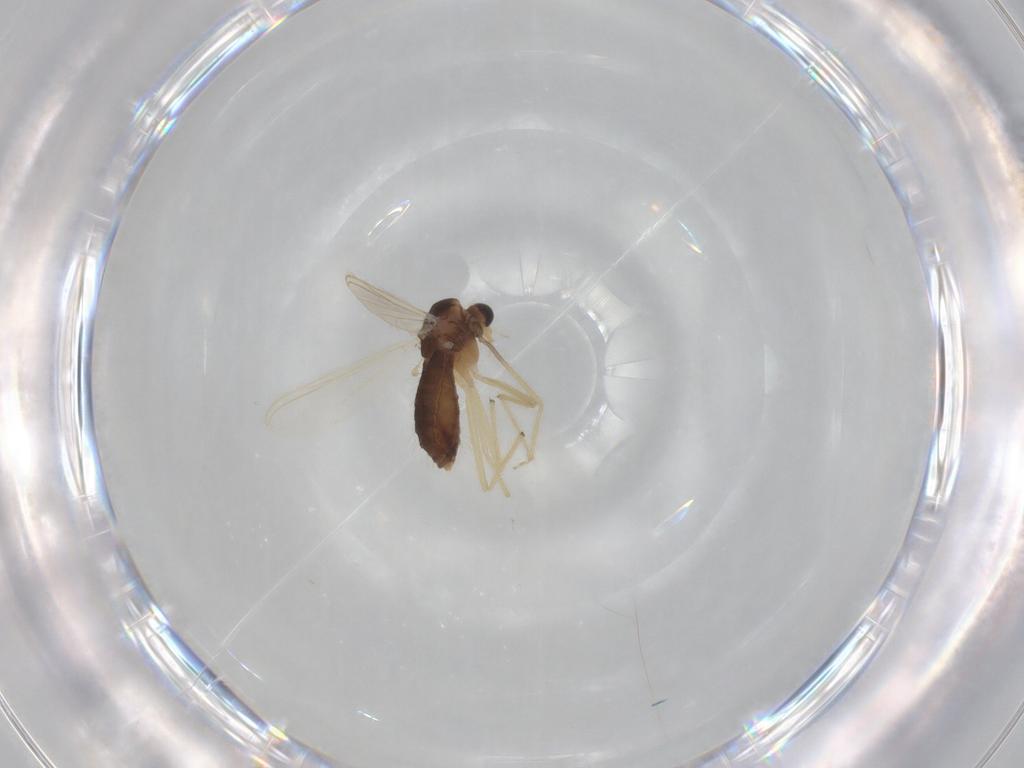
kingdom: Animalia
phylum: Arthropoda
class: Insecta
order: Diptera
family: Chironomidae
